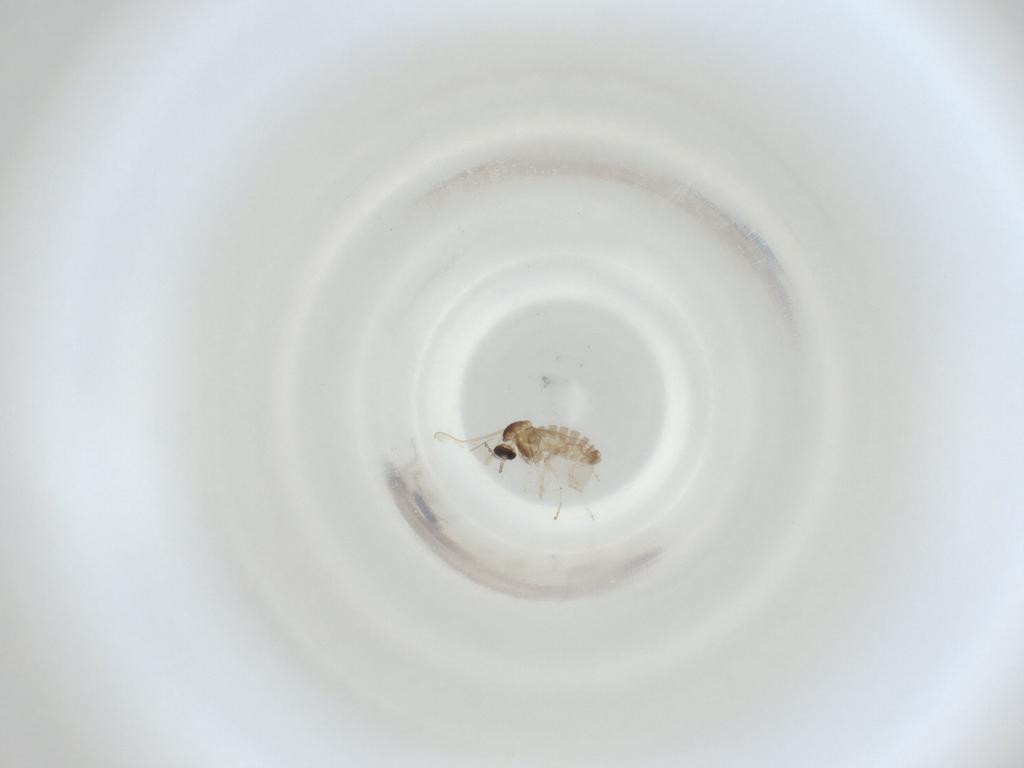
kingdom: Animalia
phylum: Arthropoda
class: Insecta
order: Diptera
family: Cecidomyiidae
